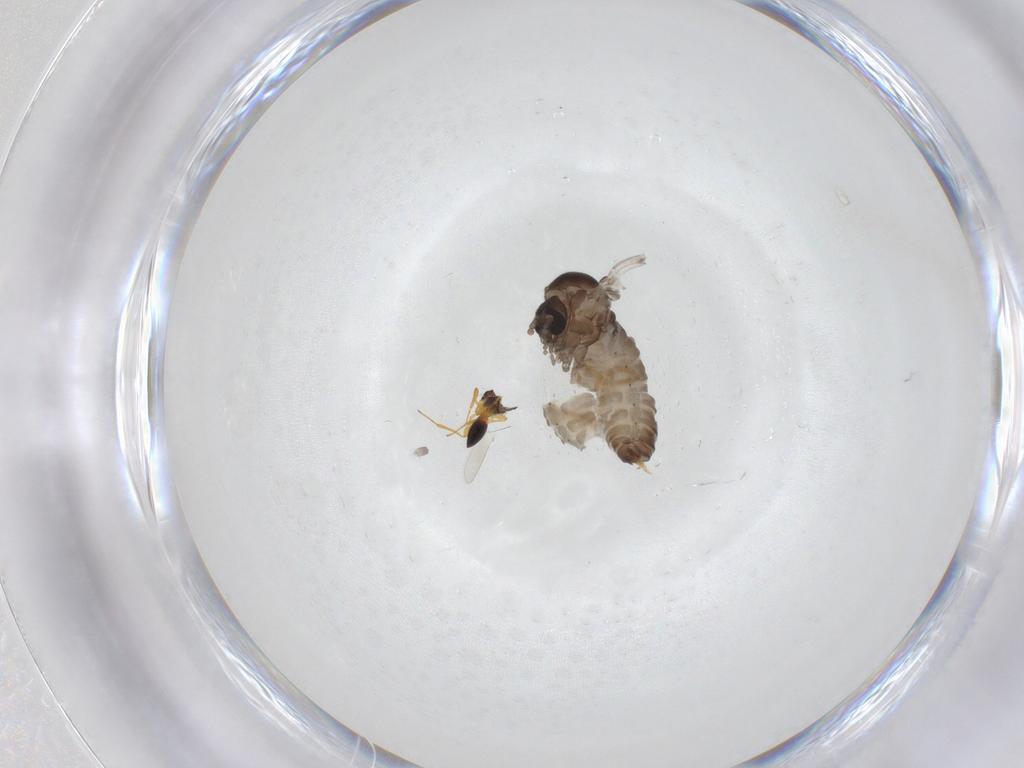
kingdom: Animalia
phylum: Arthropoda
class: Insecta
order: Diptera
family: Psychodidae
